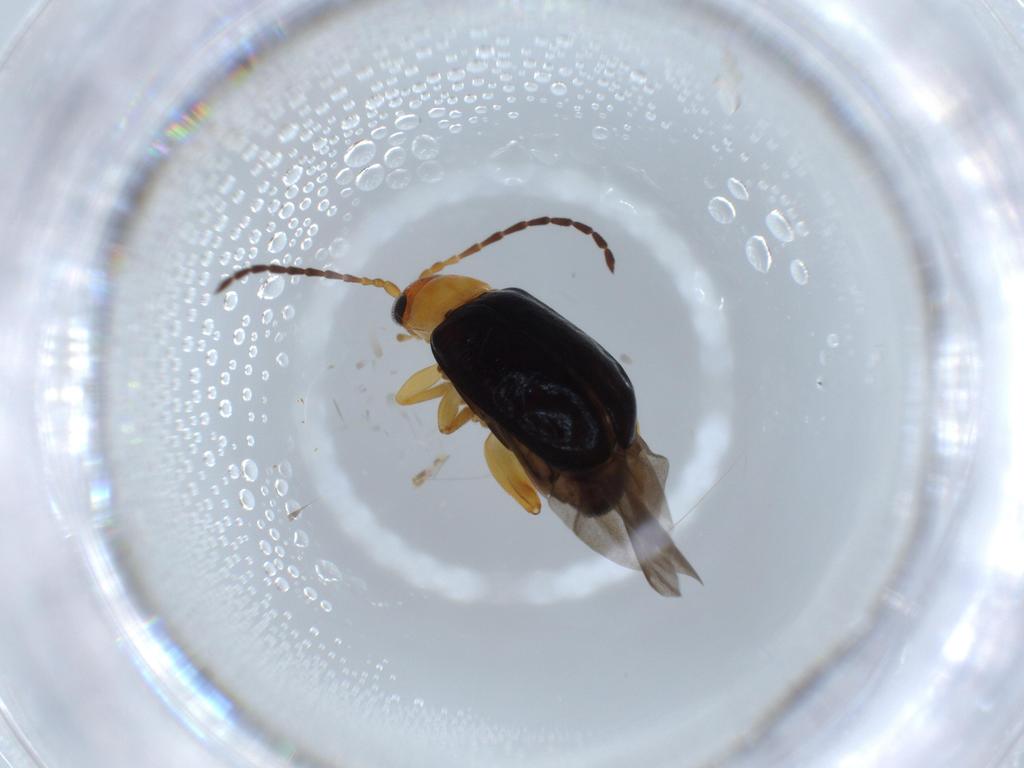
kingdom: Animalia
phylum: Arthropoda
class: Insecta
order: Coleoptera
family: Chrysomelidae
